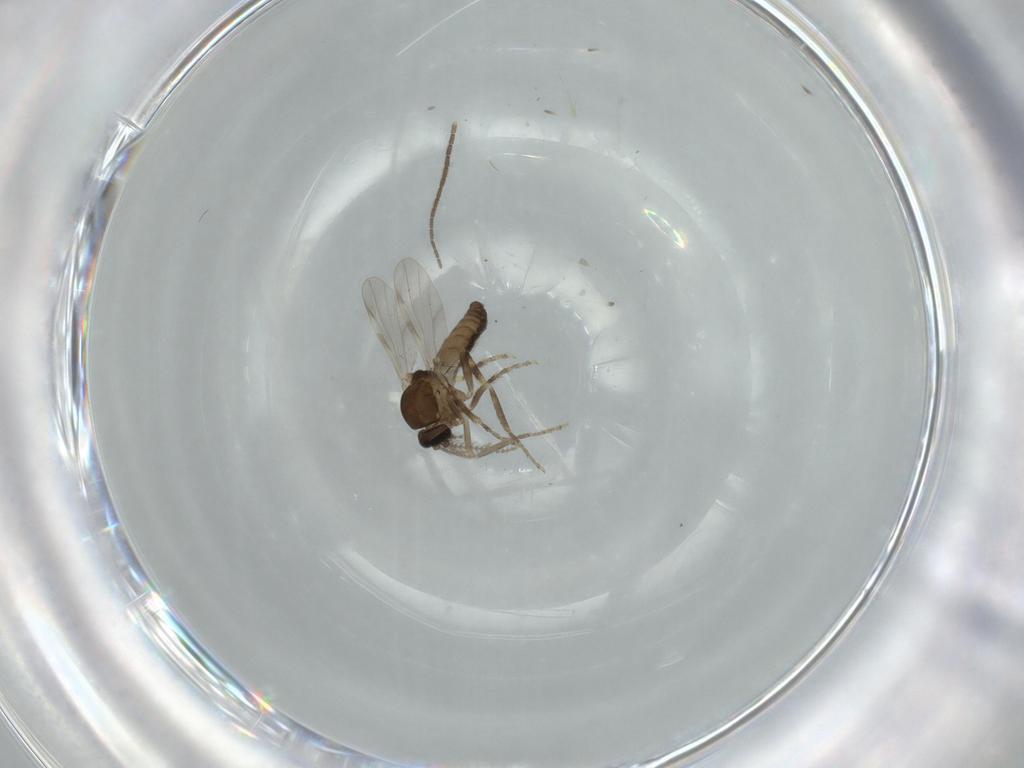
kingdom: Animalia
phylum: Arthropoda
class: Insecta
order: Diptera
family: Ceratopogonidae
